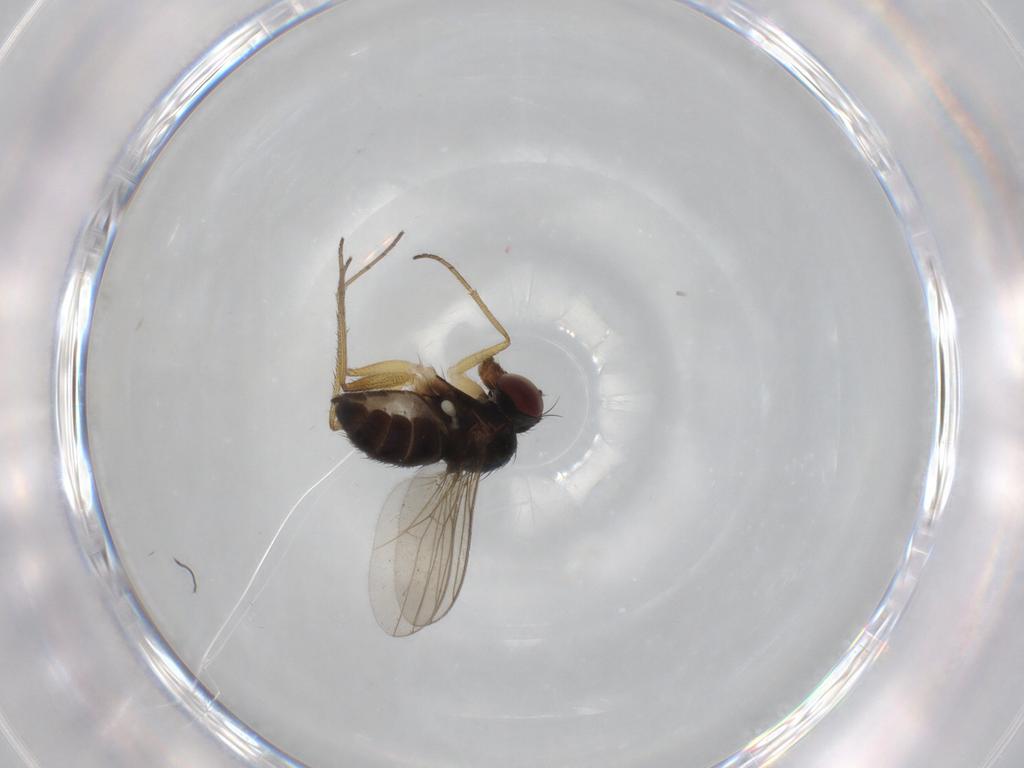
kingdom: Animalia
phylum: Arthropoda
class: Insecta
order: Diptera
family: Dolichopodidae
